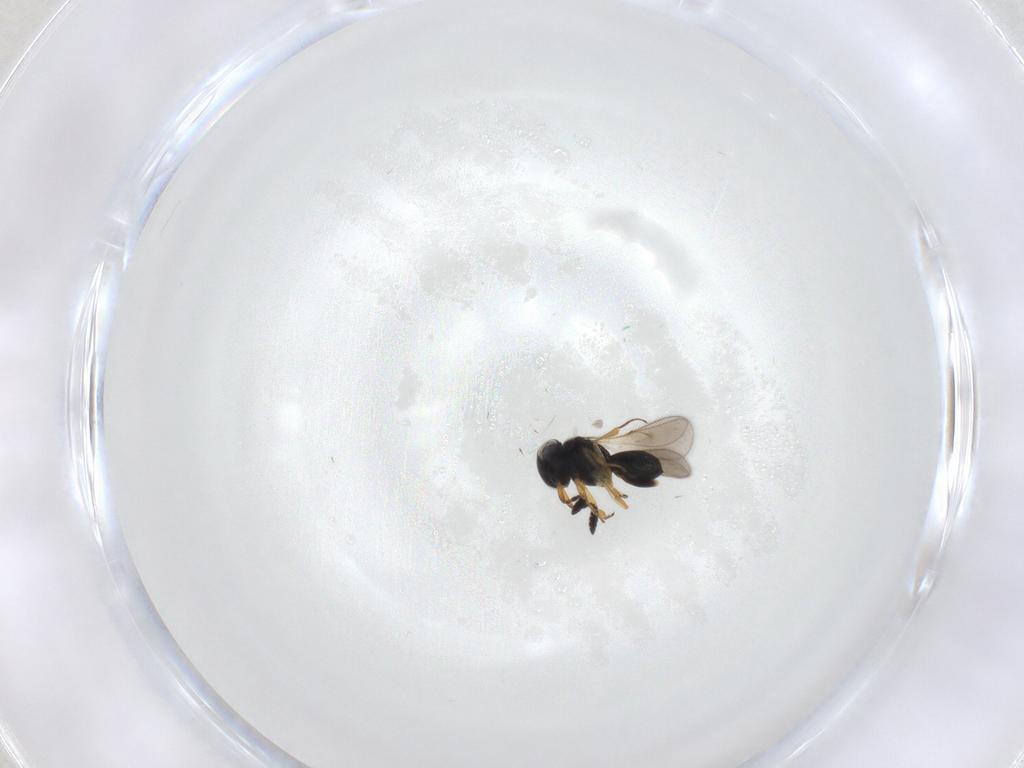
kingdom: Animalia
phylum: Arthropoda
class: Insecta
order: Hymenoptera
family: Scelionidae
